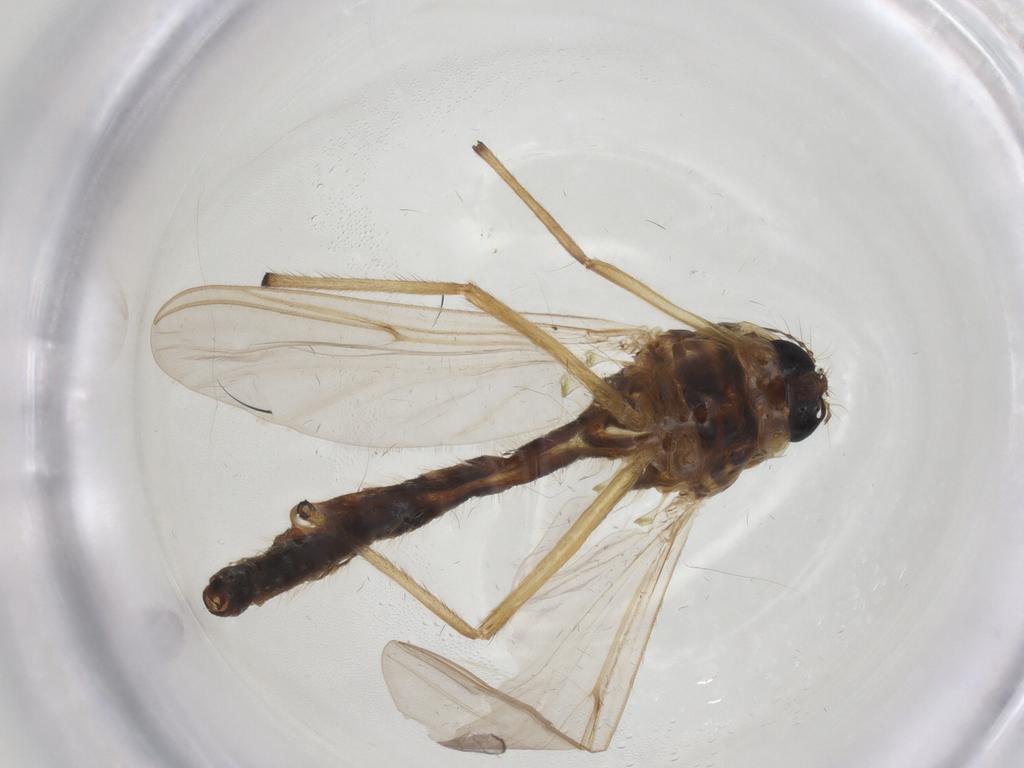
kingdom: Animalia
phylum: Arthropoda
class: Insecta
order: Diptera
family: Chironomidae
